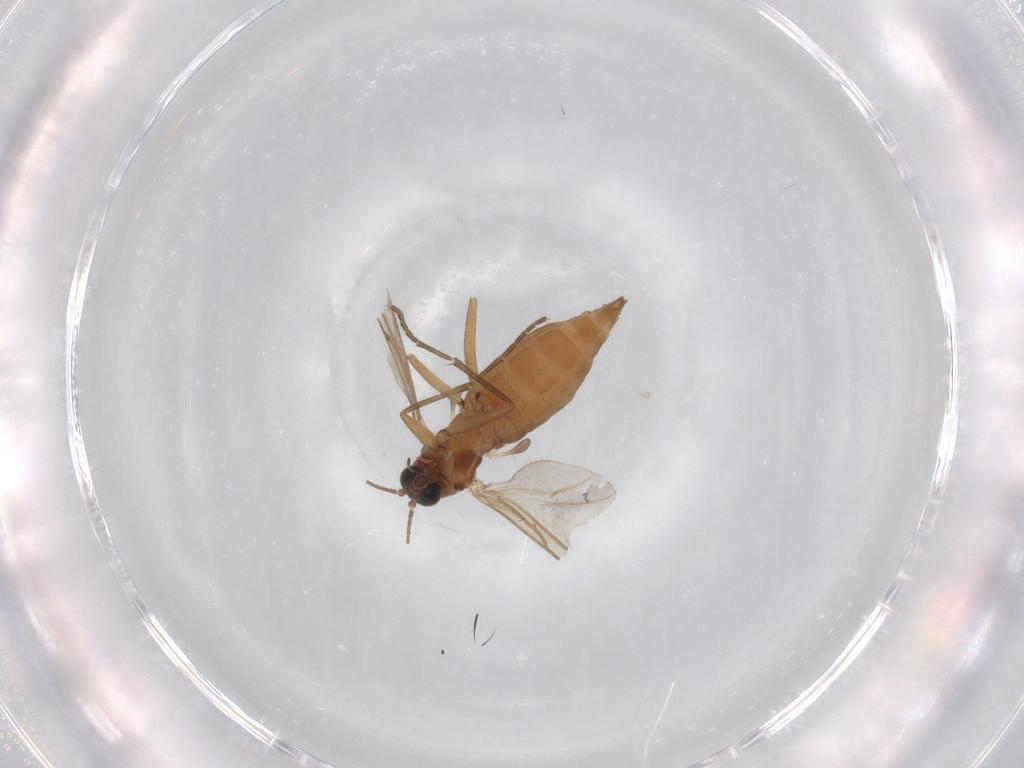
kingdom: Animalia
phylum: Arthropoda
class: Insecta
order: Diptera
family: Sciaridae
